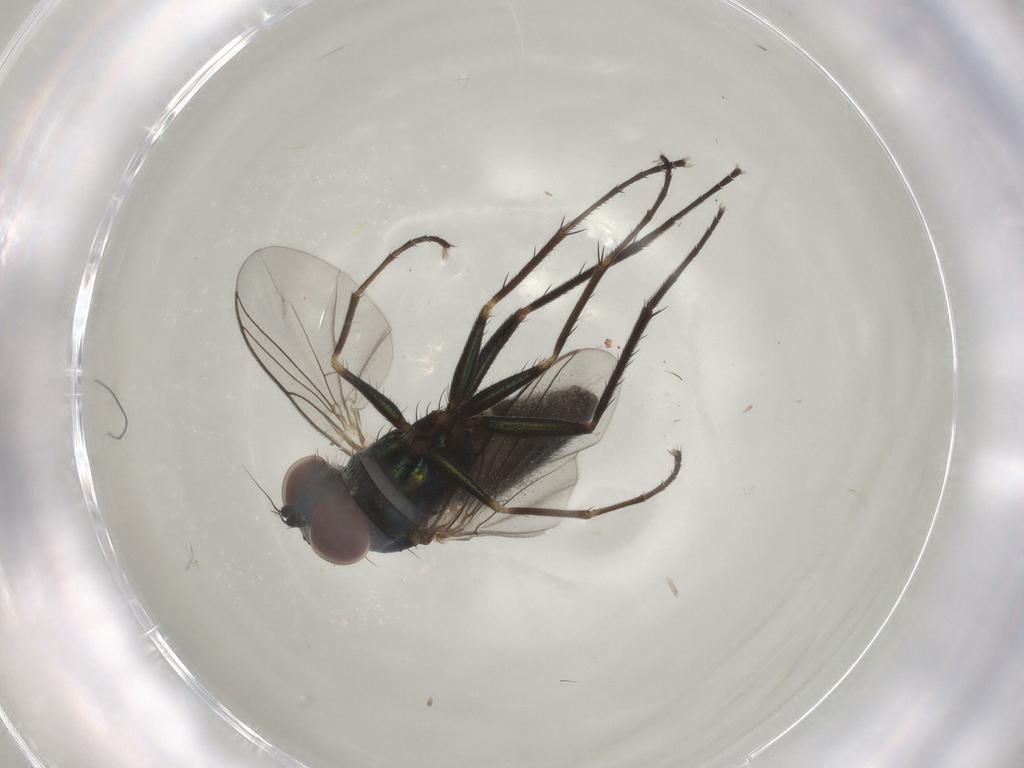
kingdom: Animalia
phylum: Arthropoda
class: Insecta
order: Diptera
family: Dolichopodidae
